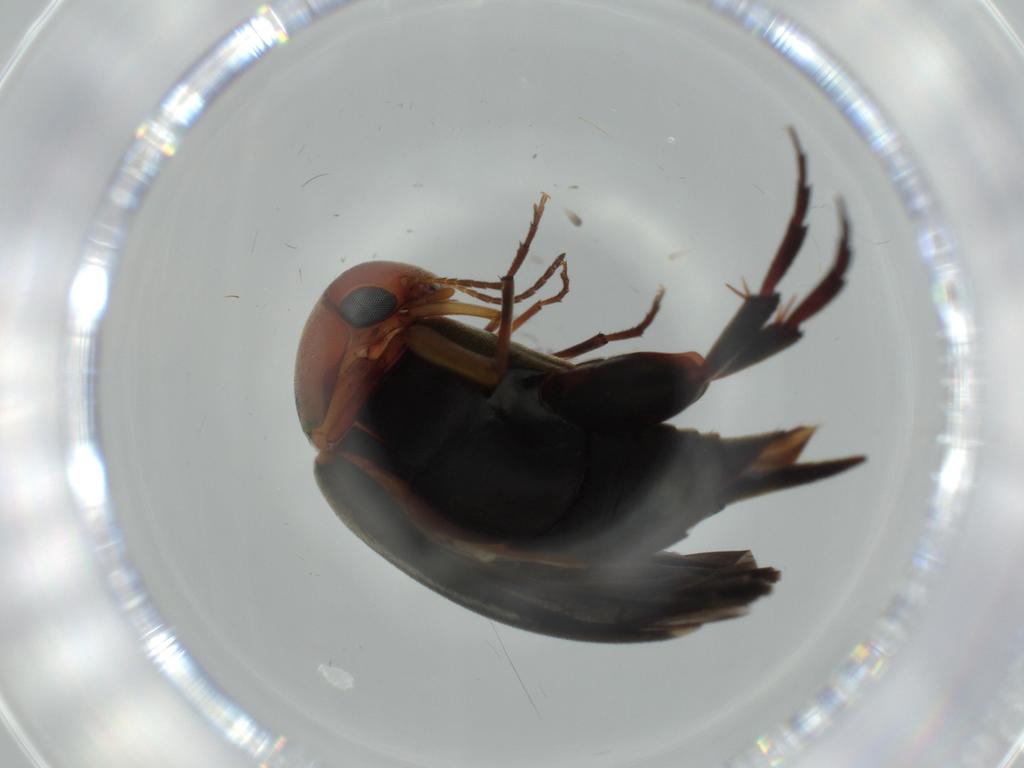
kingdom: Animalia
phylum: Arthropoda
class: Insecta
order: Coleoptera
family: Mordellidae
